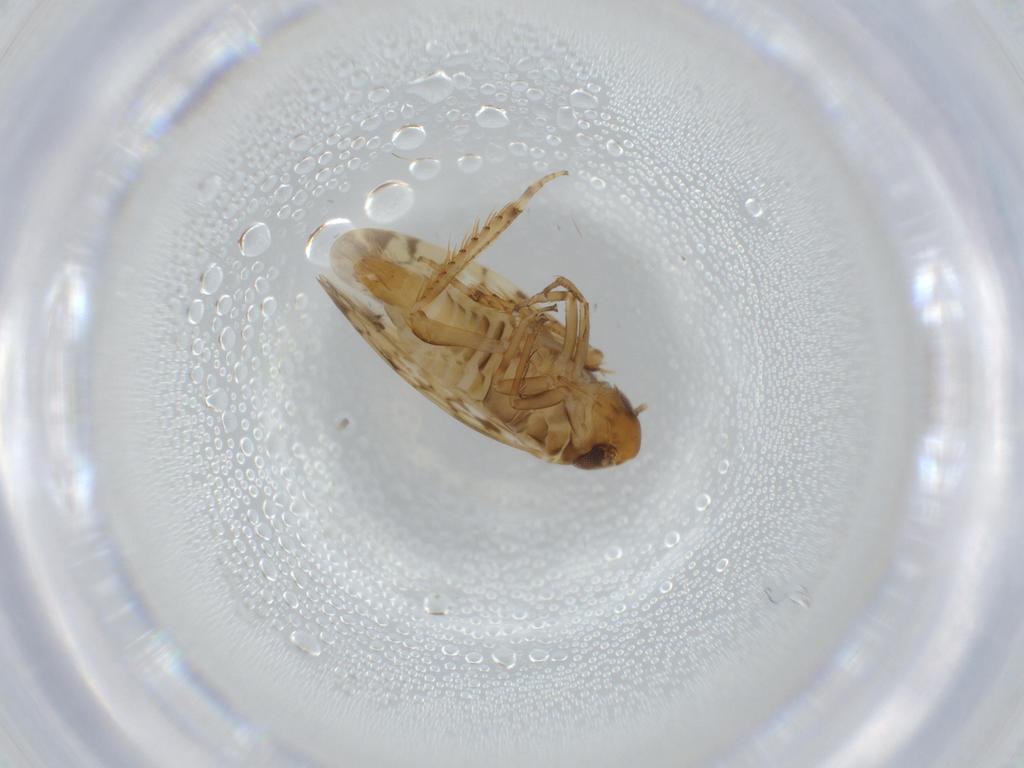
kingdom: Animalia
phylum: Arthropoda
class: Insecta
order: Hemiptera
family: Cicadellidae
